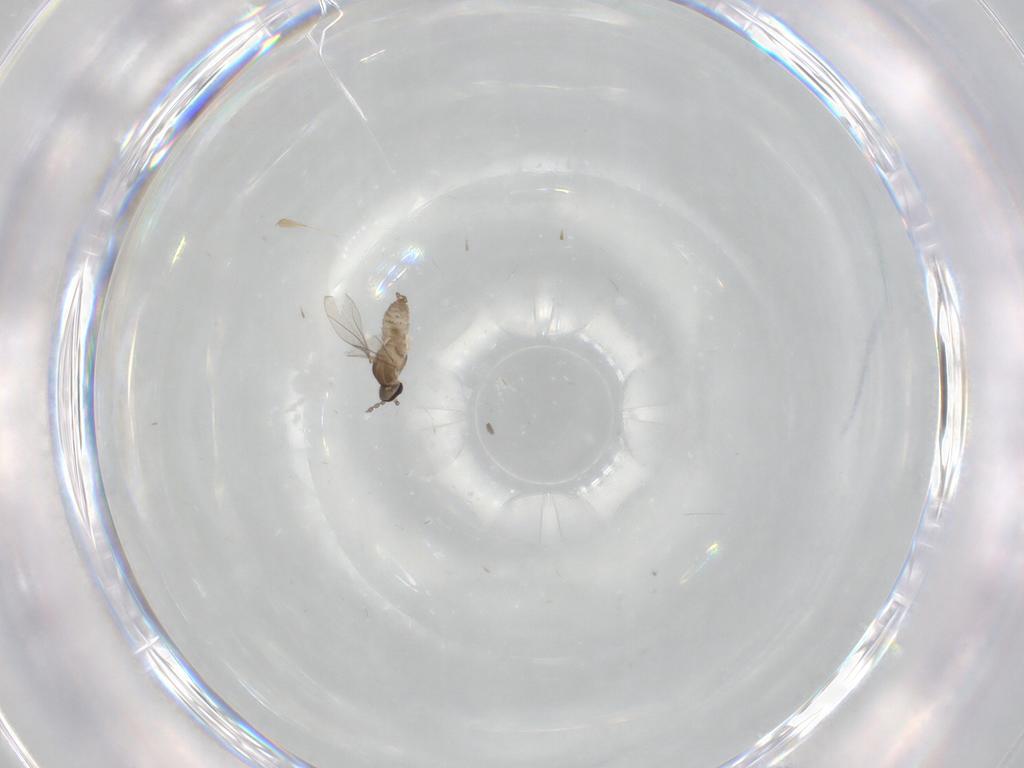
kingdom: Animalia
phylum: Arthropoda
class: Insecta
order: Diptera
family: Cecidomyiidae
